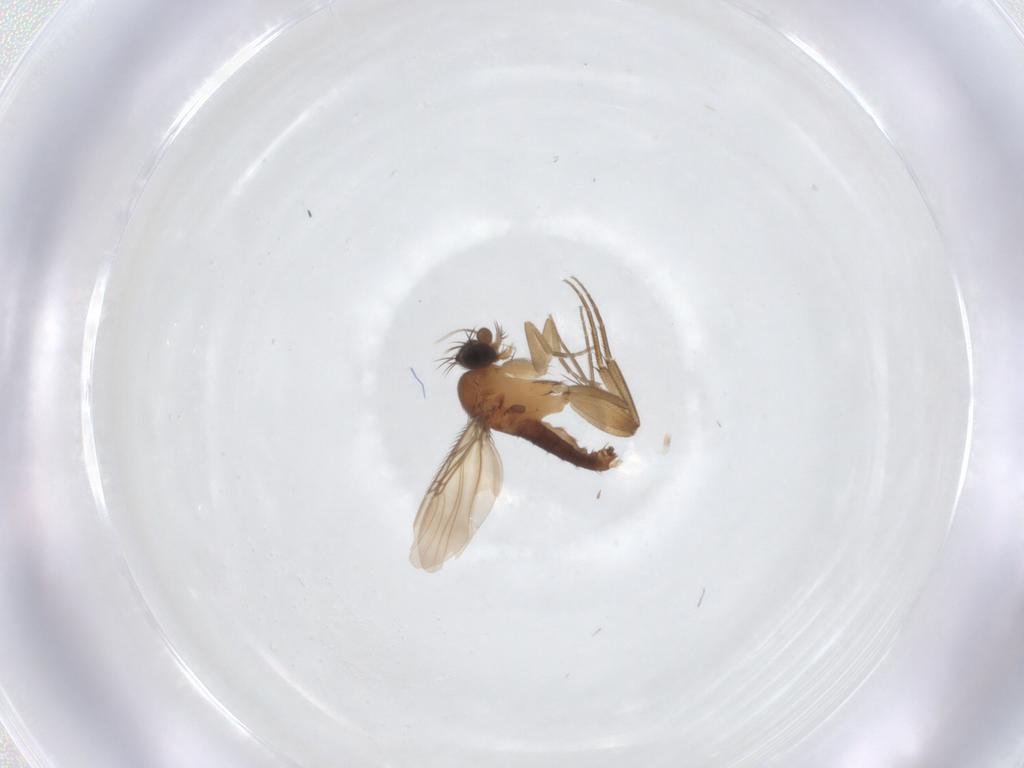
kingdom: Animalia
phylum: Arthropoda
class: Insecta
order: Diptera
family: Phoridae
